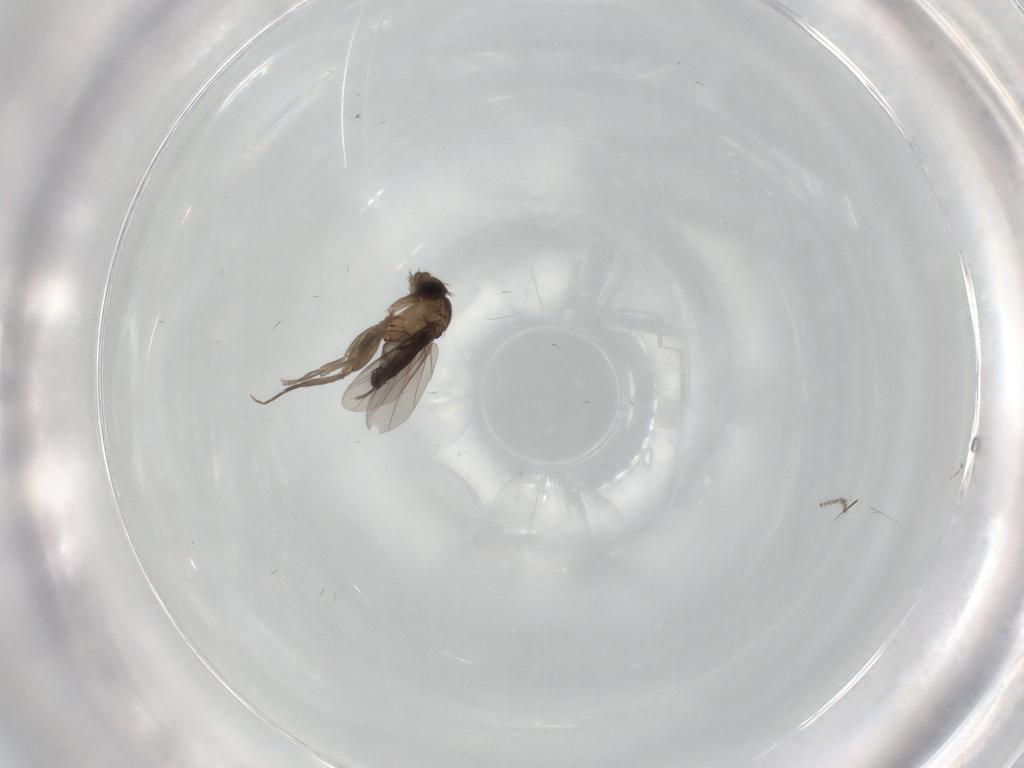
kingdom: Animalia
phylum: Arthropoda
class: Insecta
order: Diptera
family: Phoridae
